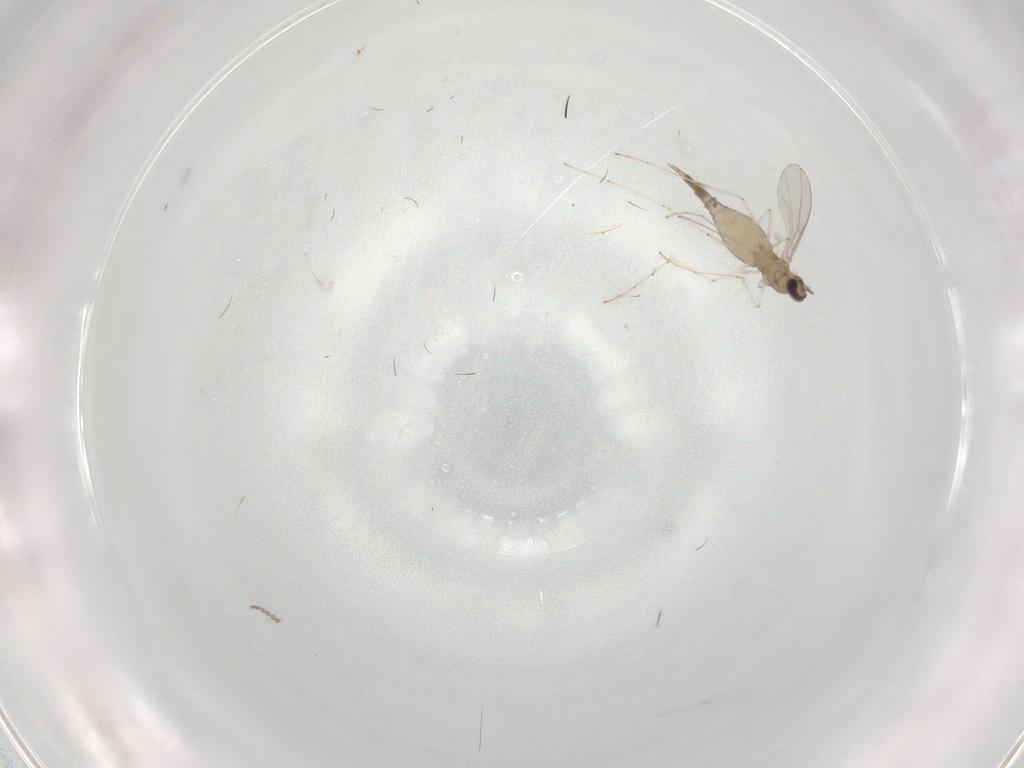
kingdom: Animalia
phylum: Arthropoda
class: Insecta
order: Diptera
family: Cecidomyiidae
